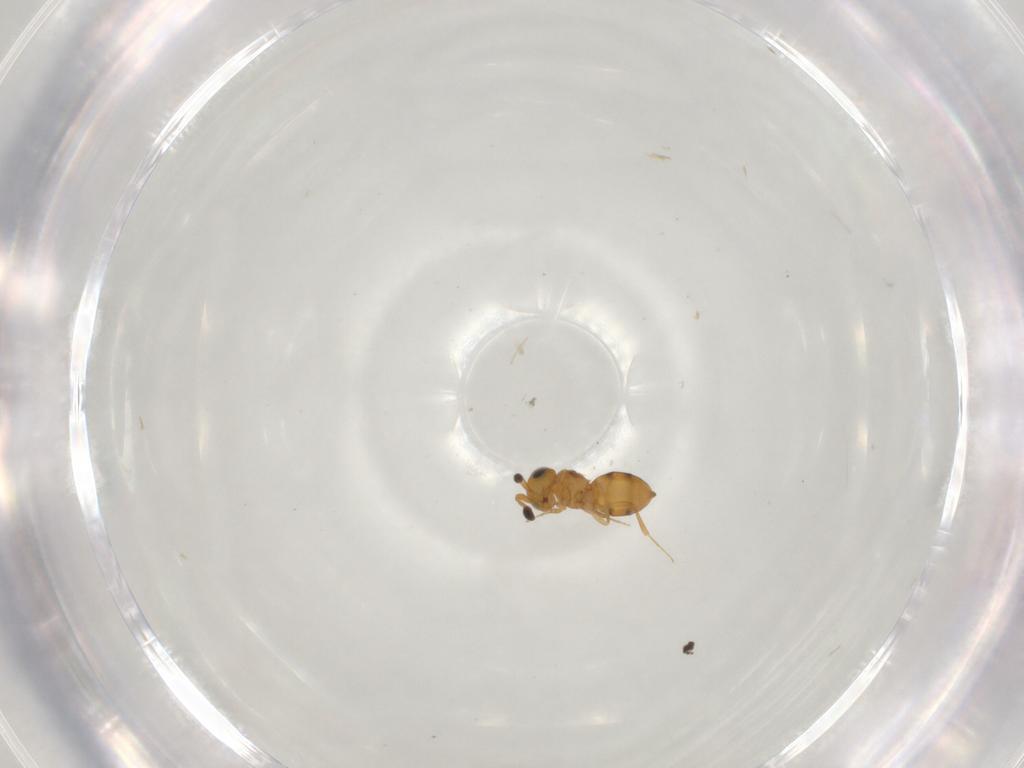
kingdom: Animalia
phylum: Arthropoda
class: Insecta
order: Hymenoptera
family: Scelionidae
